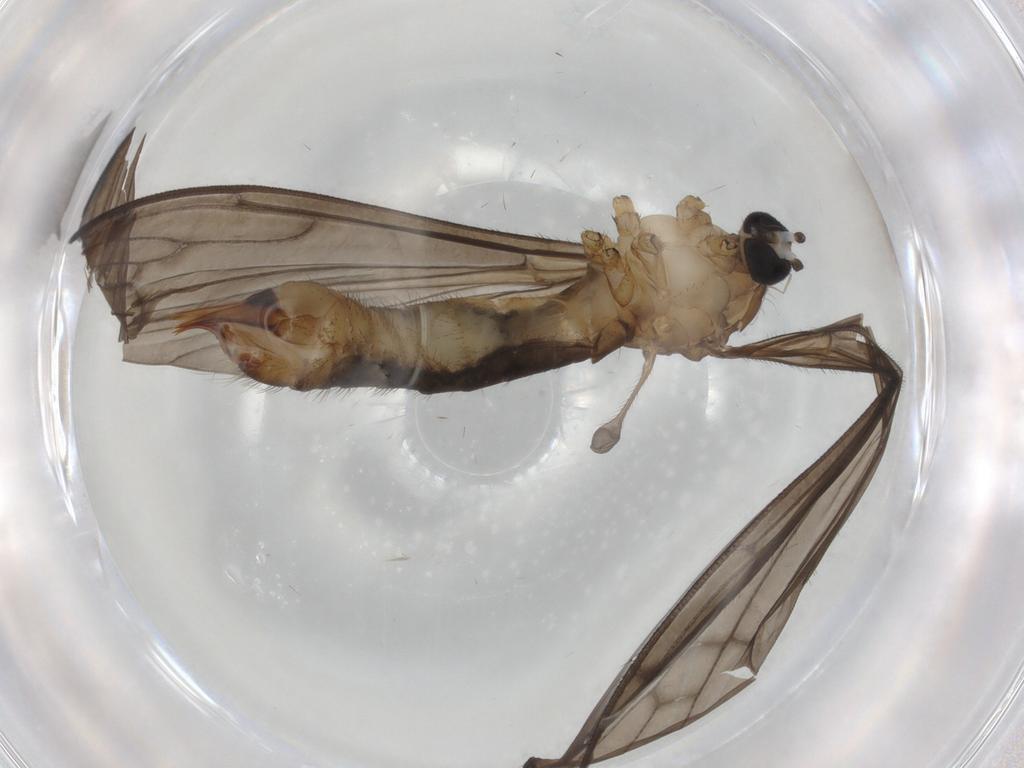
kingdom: Animalia
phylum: Arthropoda
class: Insecta
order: Diptera
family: Limoniidae
